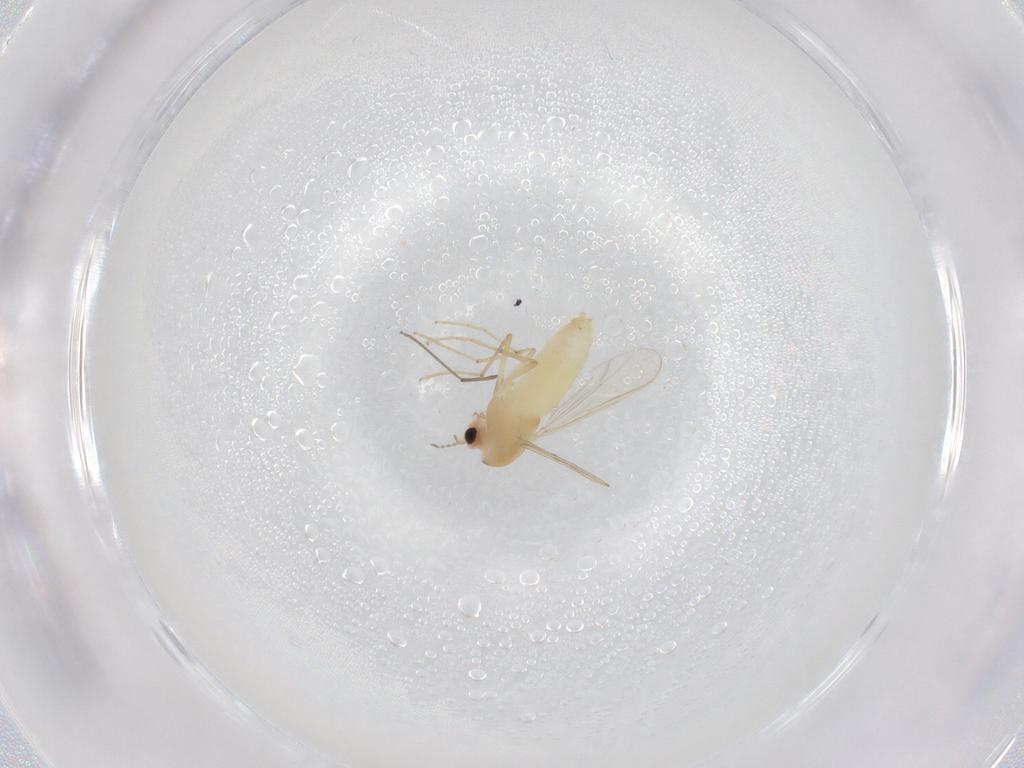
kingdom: Animalia
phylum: Arthropoda
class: Insecta
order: Diptera
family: Chironomidae
